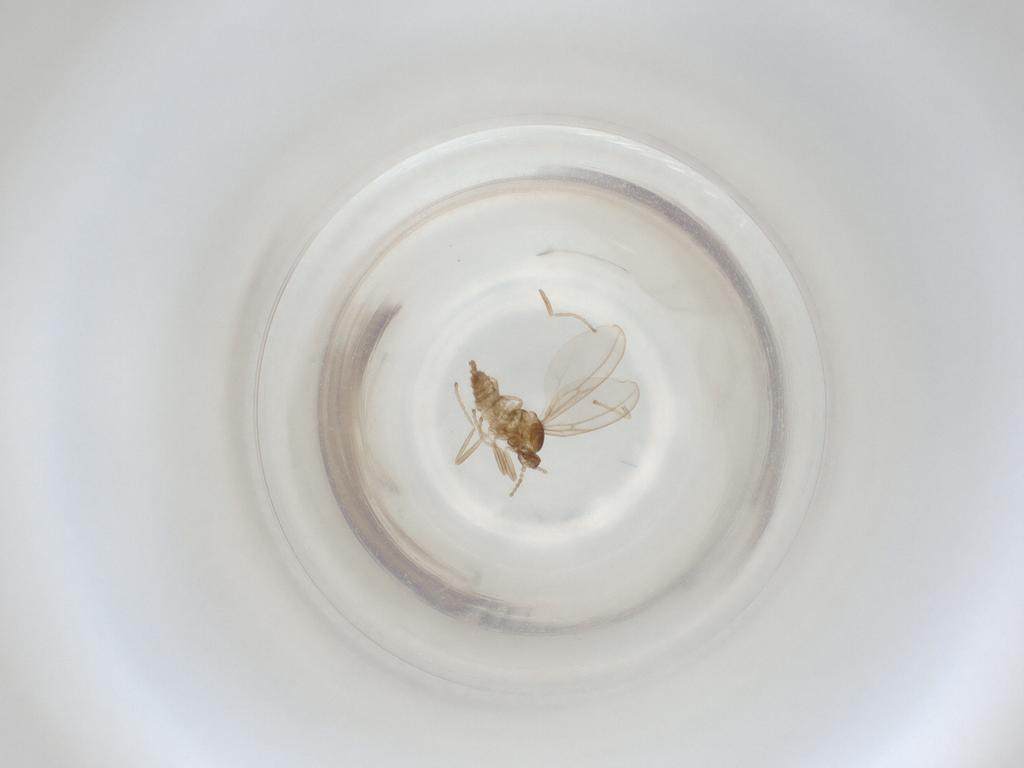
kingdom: Animalia
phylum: Arthropoda
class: Insecta
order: Diptera
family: Cecidomyiidae
